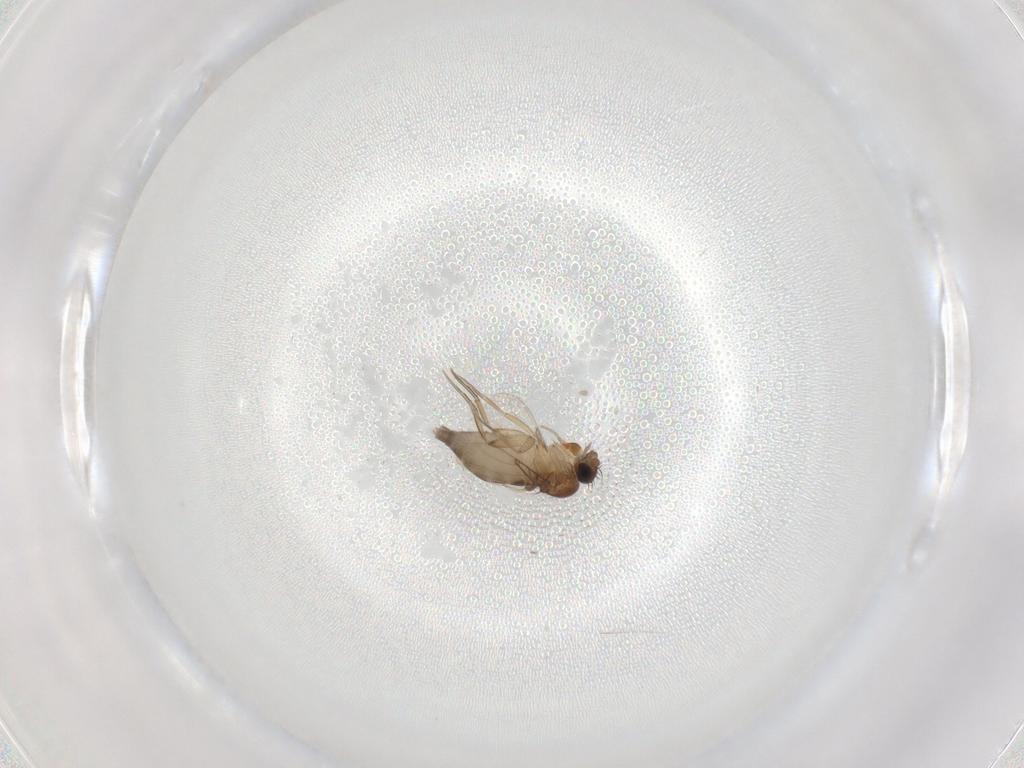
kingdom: Animalia
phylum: Arthropoda
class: Insecta
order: Diptera
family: Phoridae
